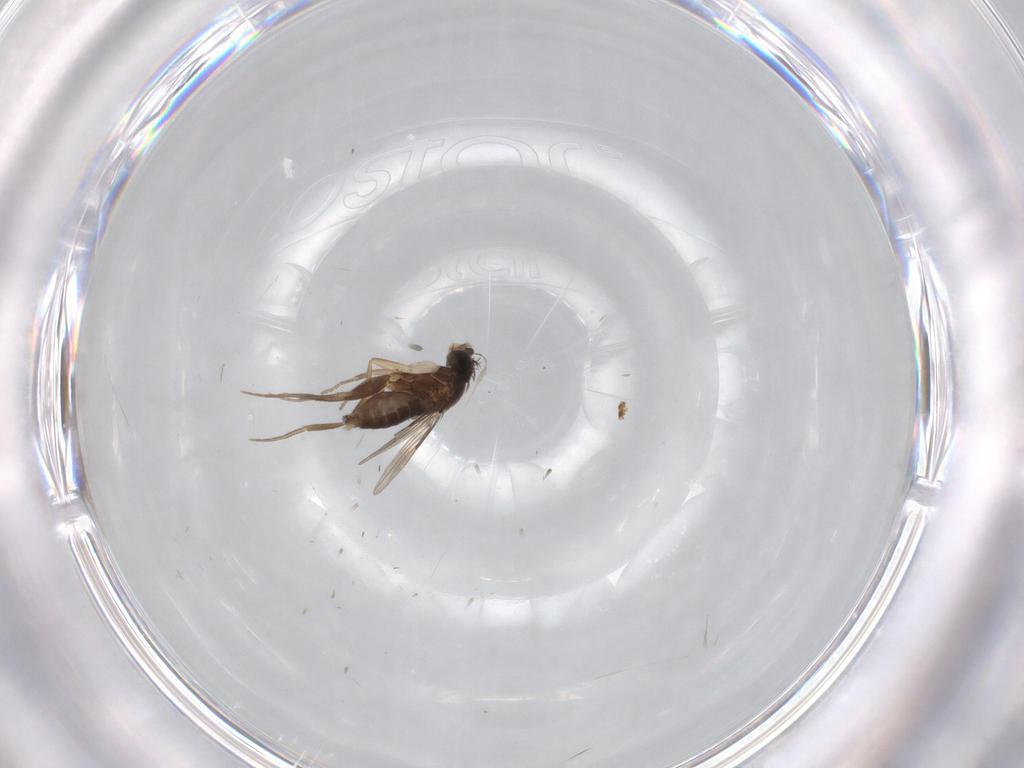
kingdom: Animalia
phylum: Arthropoda
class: Insecta
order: Diptera
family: Phoridae
